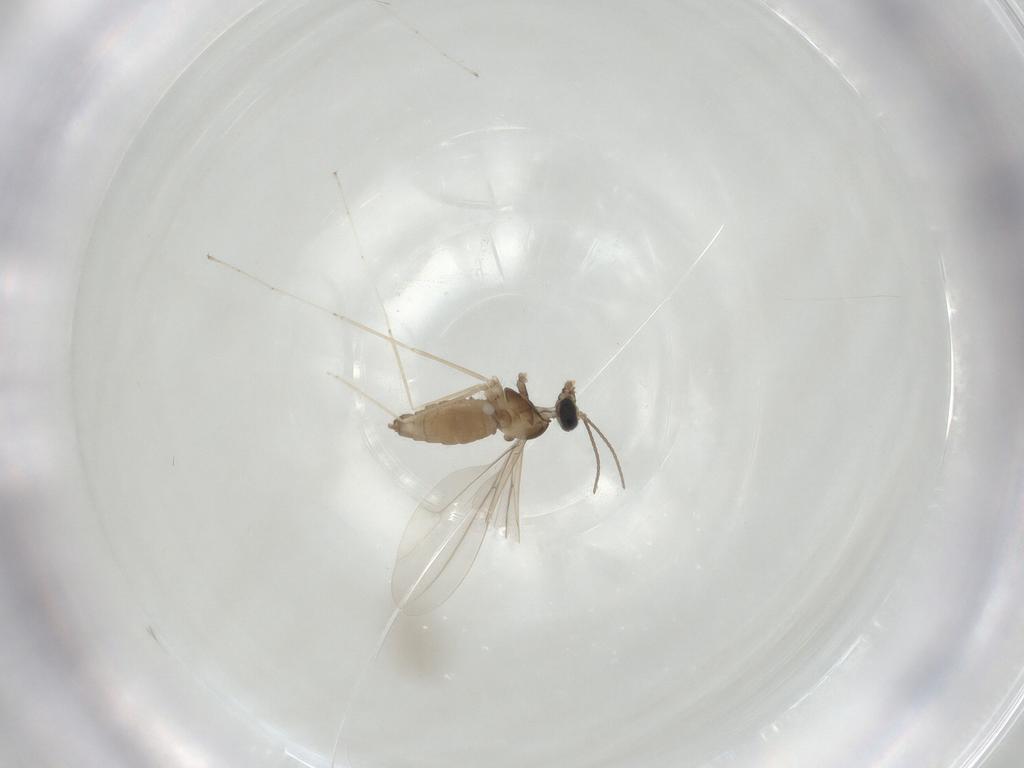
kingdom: Animalia
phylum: Arthropoda
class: Insecta
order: Diptera
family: Cecidomyiidae
